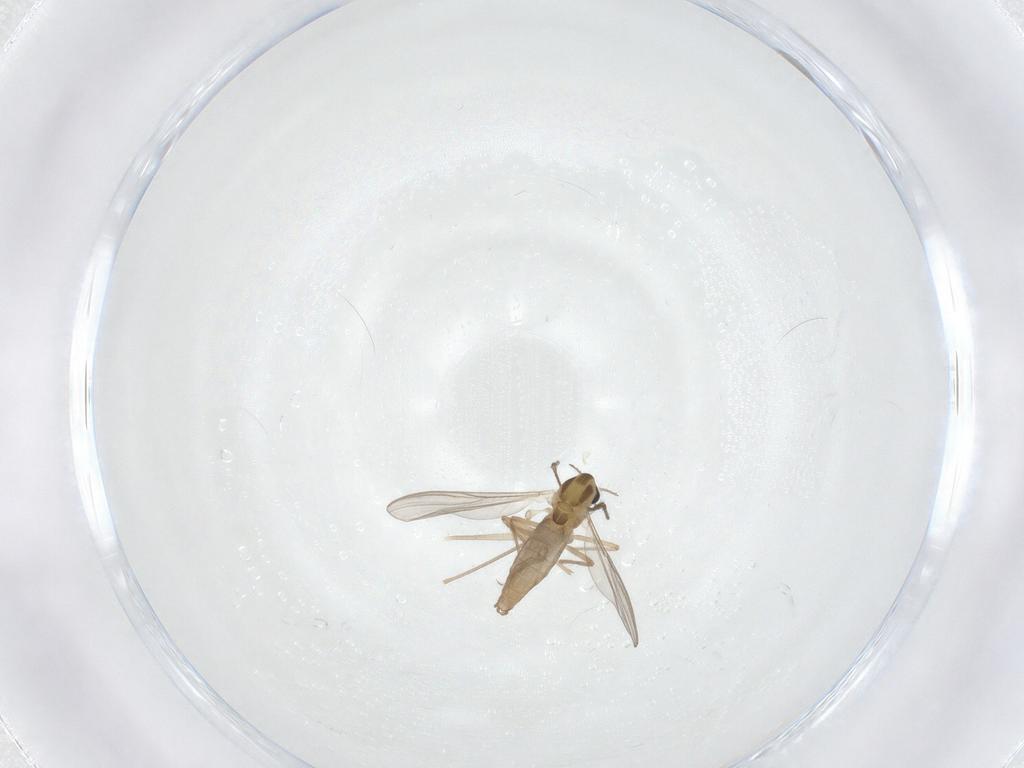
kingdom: Animalia
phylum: Arthropoda
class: Insecta
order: Diptera
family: Chironomidae
